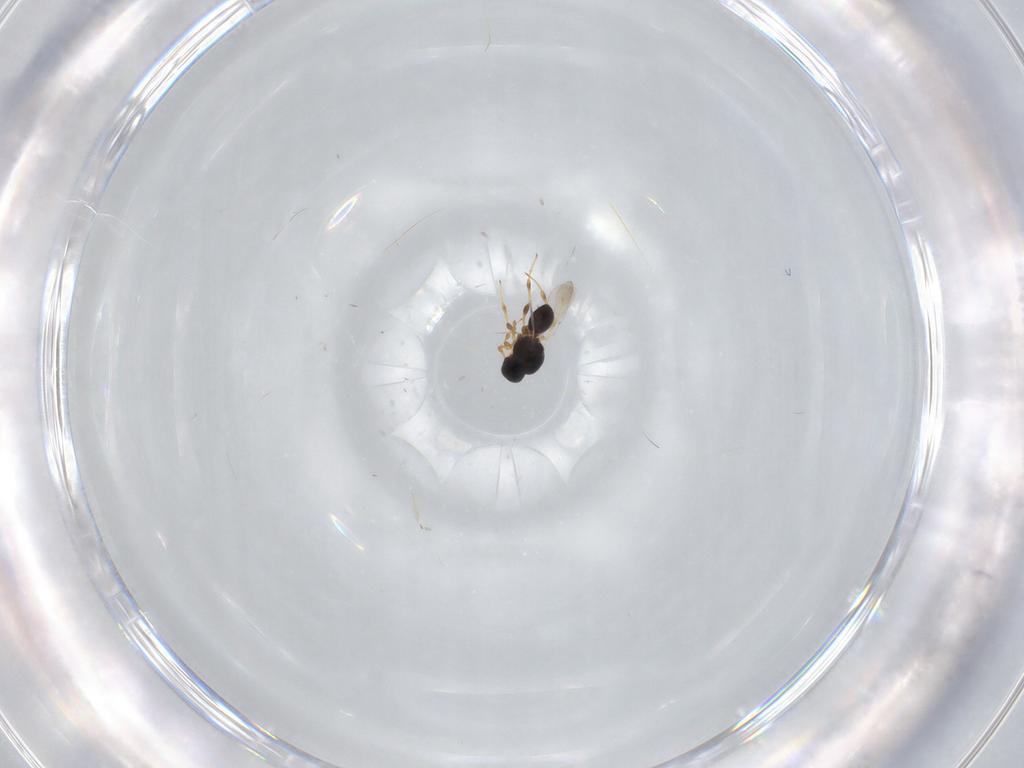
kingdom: Animalia
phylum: Arthropoda
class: Insecta
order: Hymenoptera
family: Platygastridae
